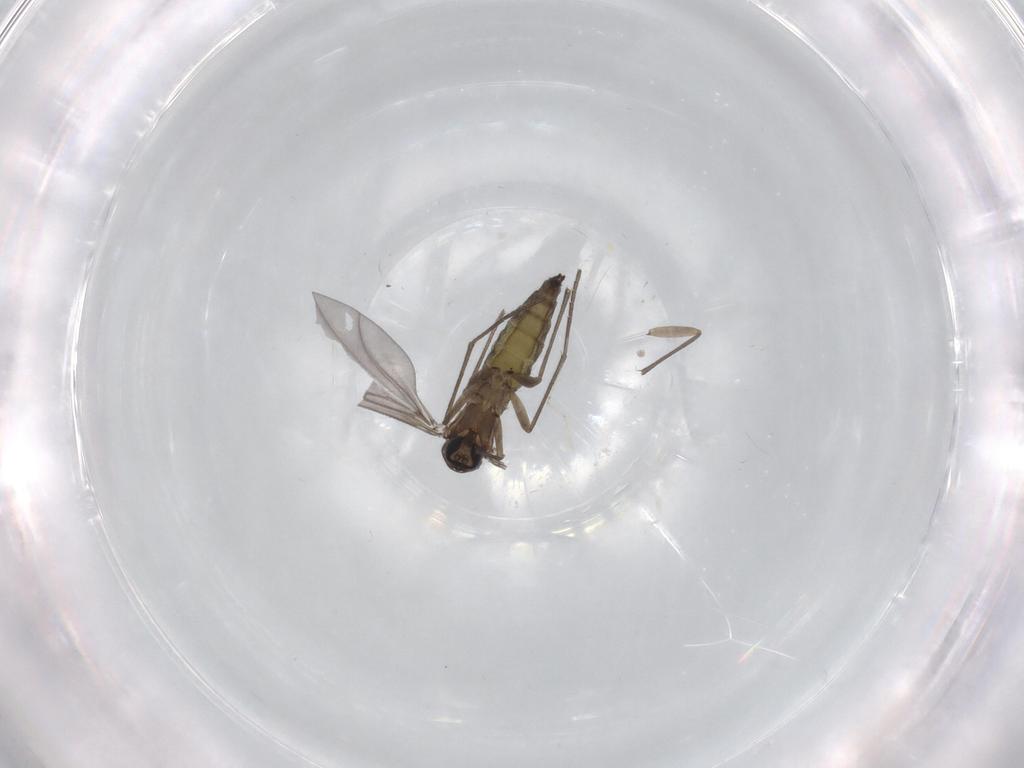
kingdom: Animalia
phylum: Arthropoda
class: Insecta
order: Diptera
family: Sciaridae
